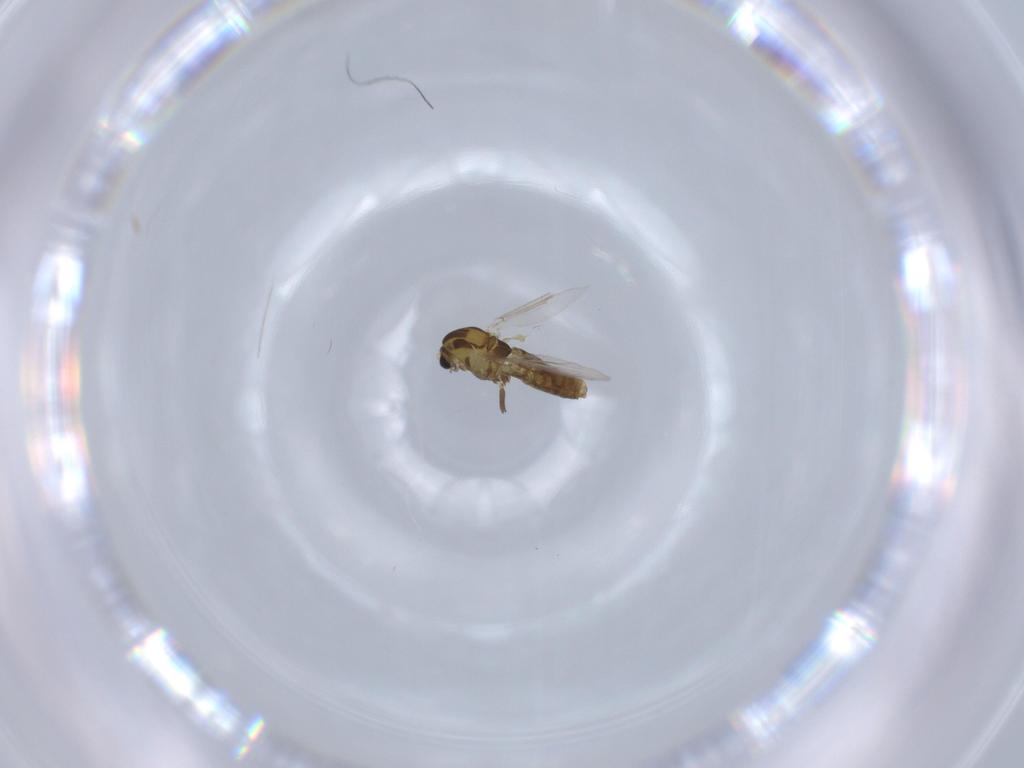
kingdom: Animalia
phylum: Arthropoda
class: Insecta
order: Diptera
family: Chironomidae
